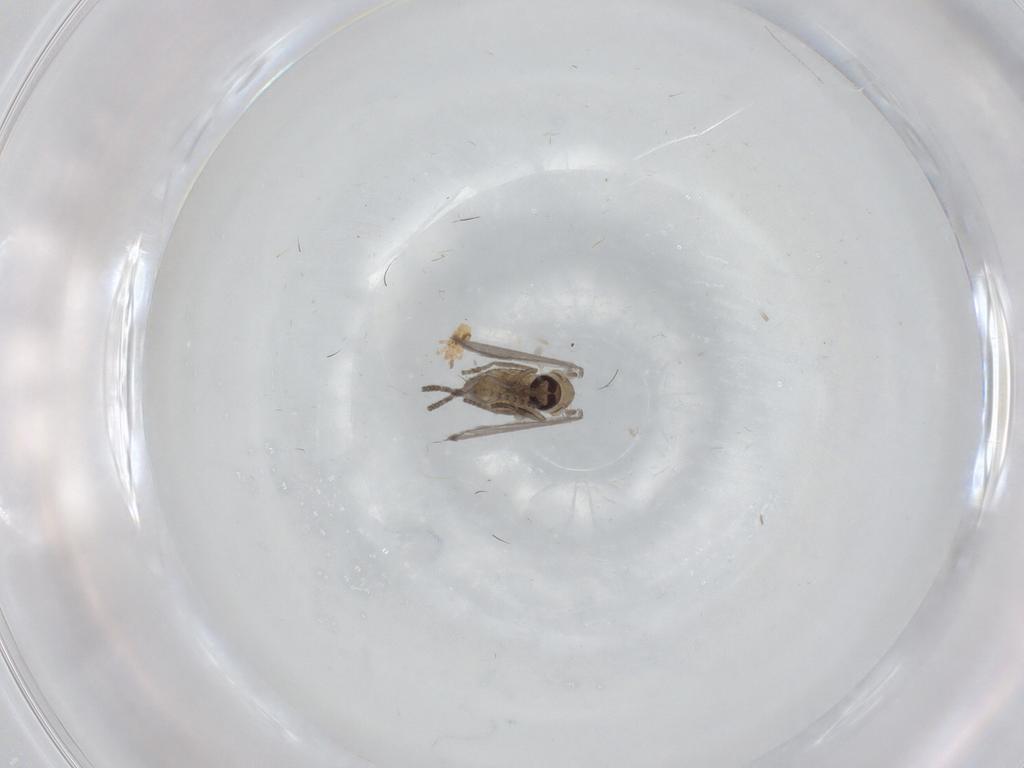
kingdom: Animalia
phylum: Arthropoda
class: Insecta
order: Diptera
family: Psychodidae
